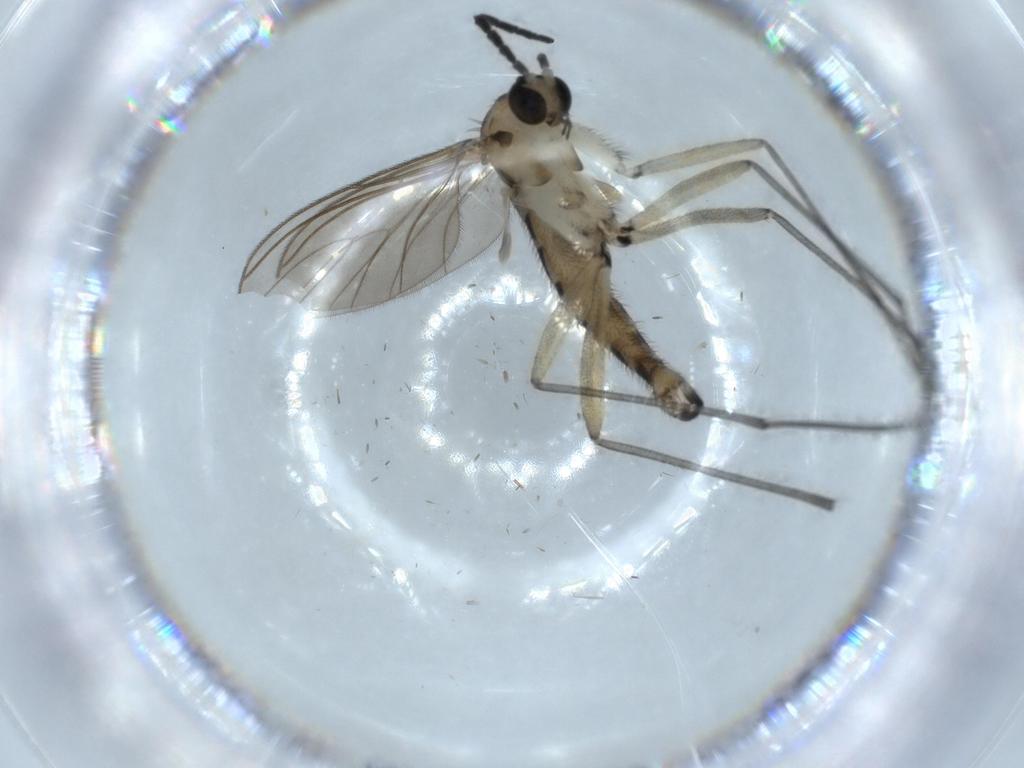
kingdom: Animalia
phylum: Arthropoda
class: Insecta
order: Diptera
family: Sciaridae
